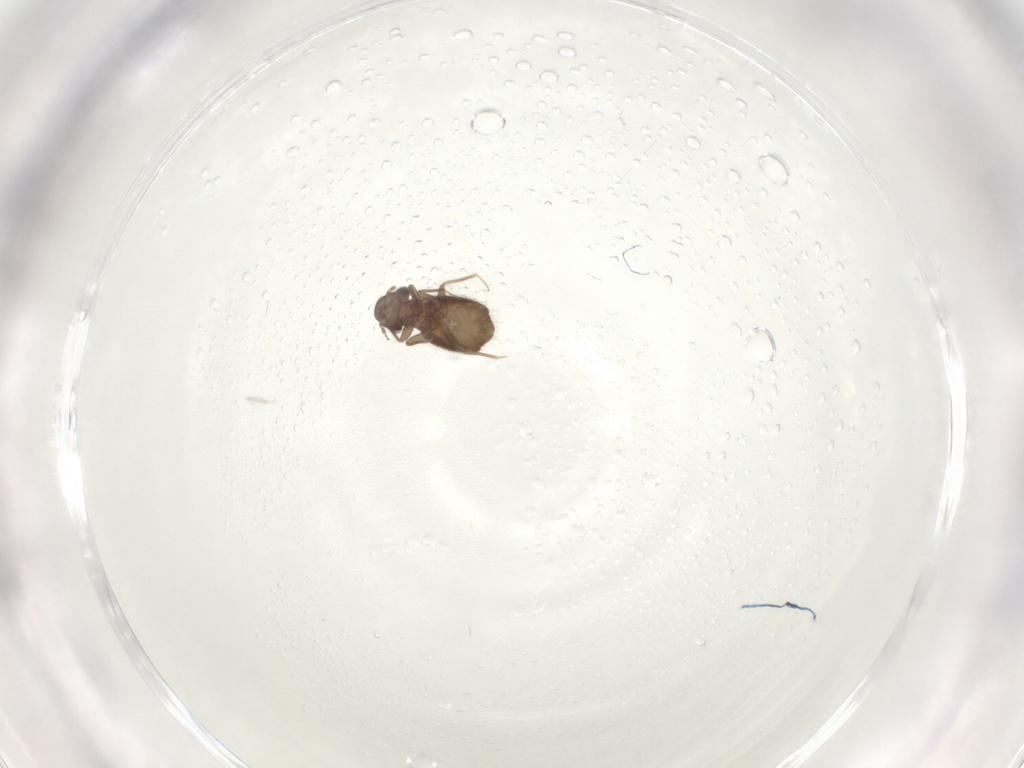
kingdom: Animalia
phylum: Arthropoda
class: Insecta
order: Psocodea
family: Trogiidae
